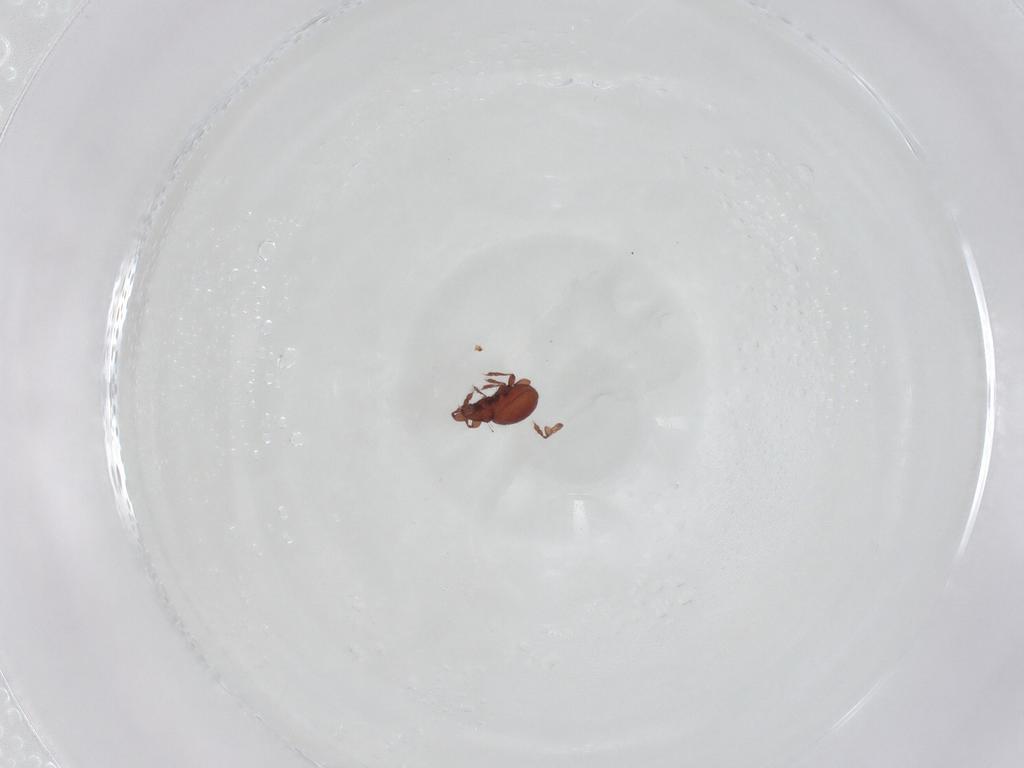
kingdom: Animalia
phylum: Arthropoda
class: Arachnida
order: Sarcoptiformes
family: Eremaeidae
